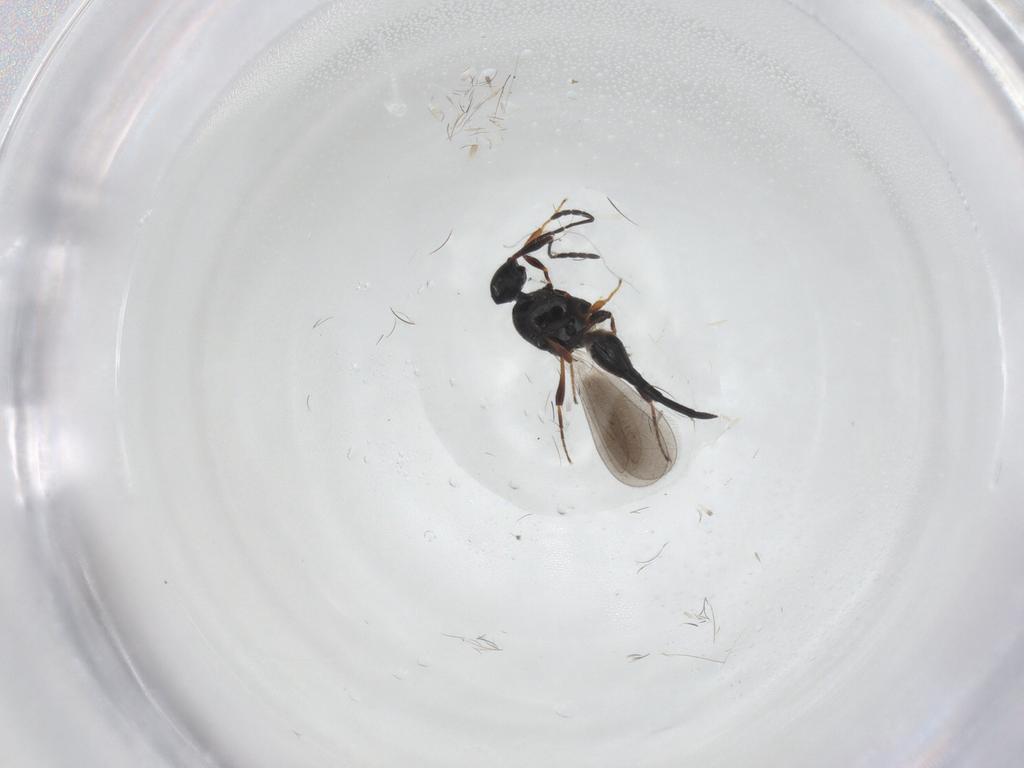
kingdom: Animalia
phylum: Arthropoda
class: Insecta
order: Hymenoptera
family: Platygastridae
